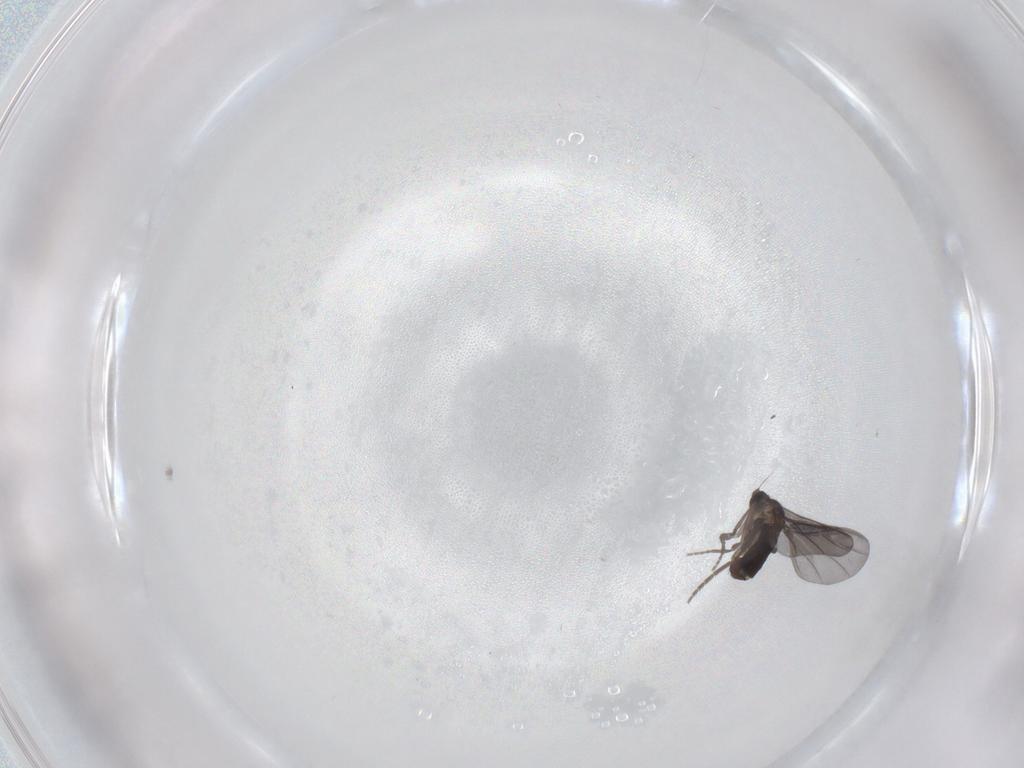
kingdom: Animalia
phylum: Arthropoda
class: Insecta
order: Diptera
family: Phoridae
